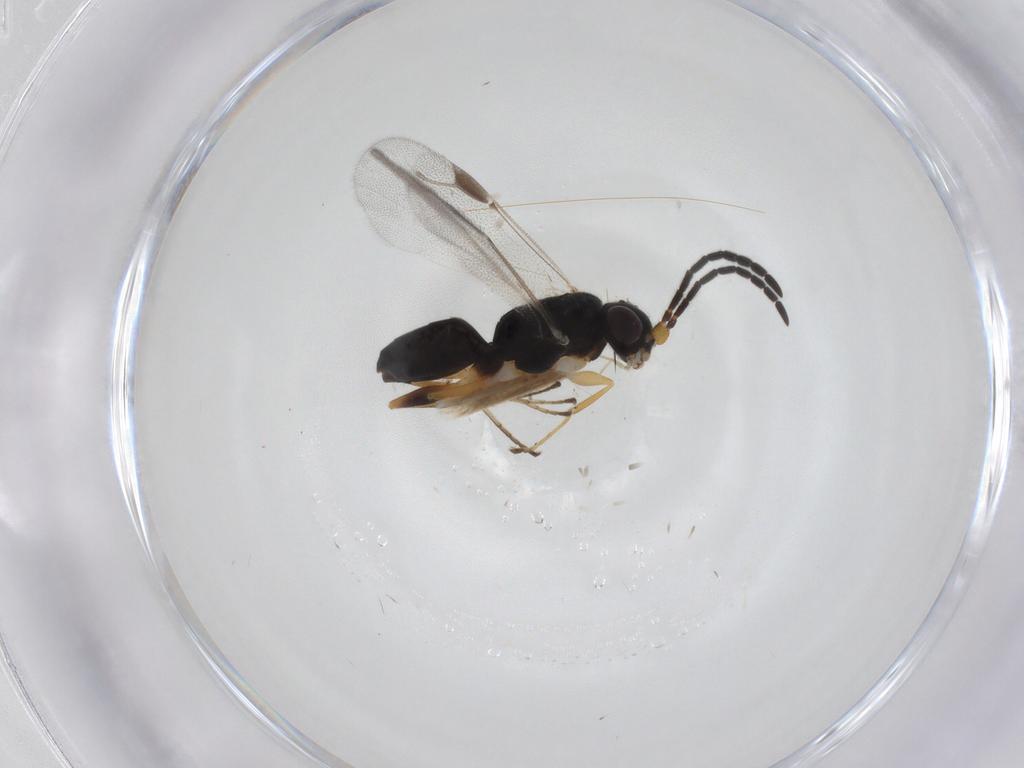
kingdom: Animalia
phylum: Arthropoda
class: Insecta
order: Hymenoptera
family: Dryinidae
